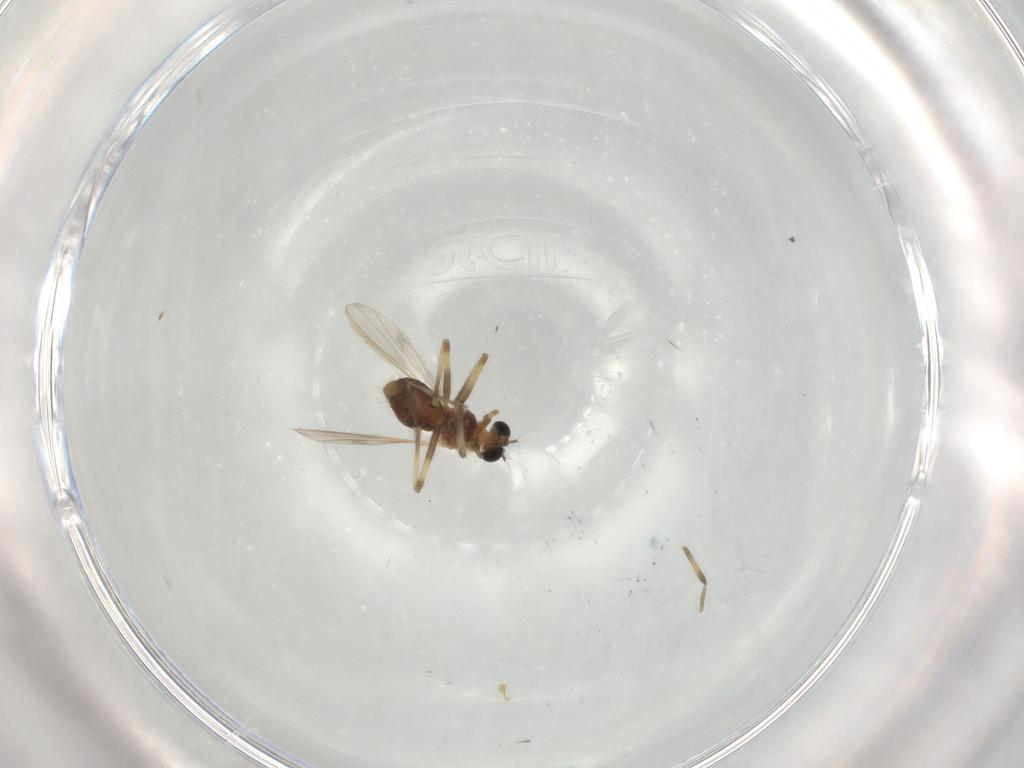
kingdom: Animalia
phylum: Arthropoda
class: Insecta
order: Diptera
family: Chironomidae
